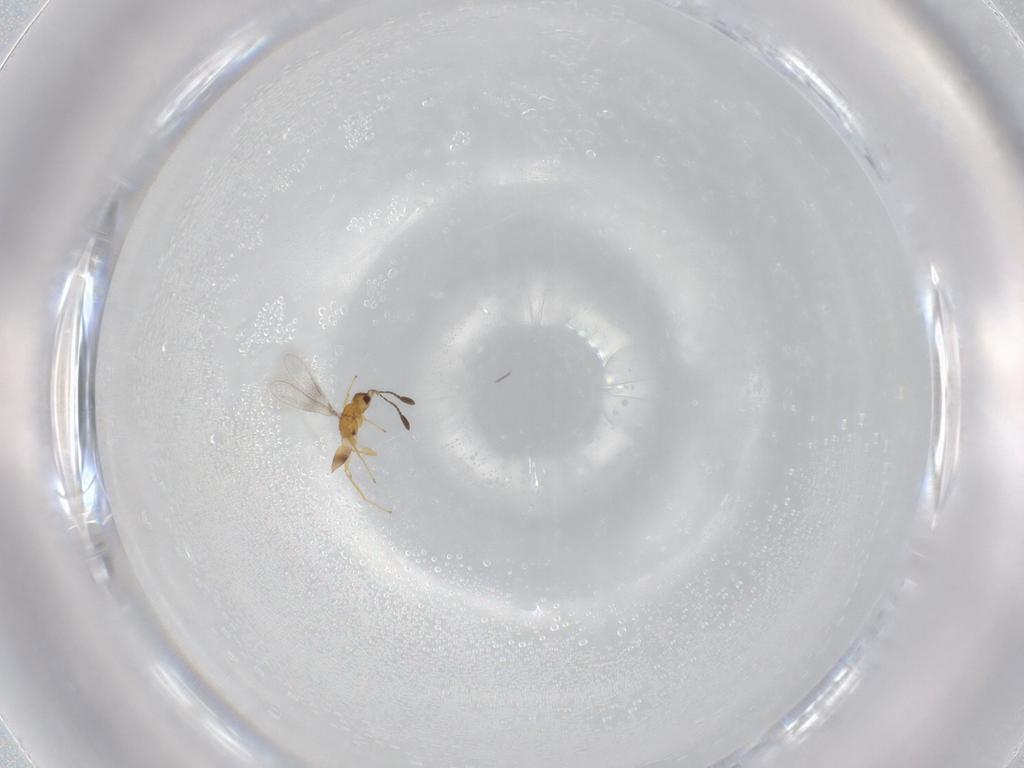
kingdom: Animalia
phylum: Arthropoda
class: Insecta
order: Hymenoptera
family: Mymaridae
